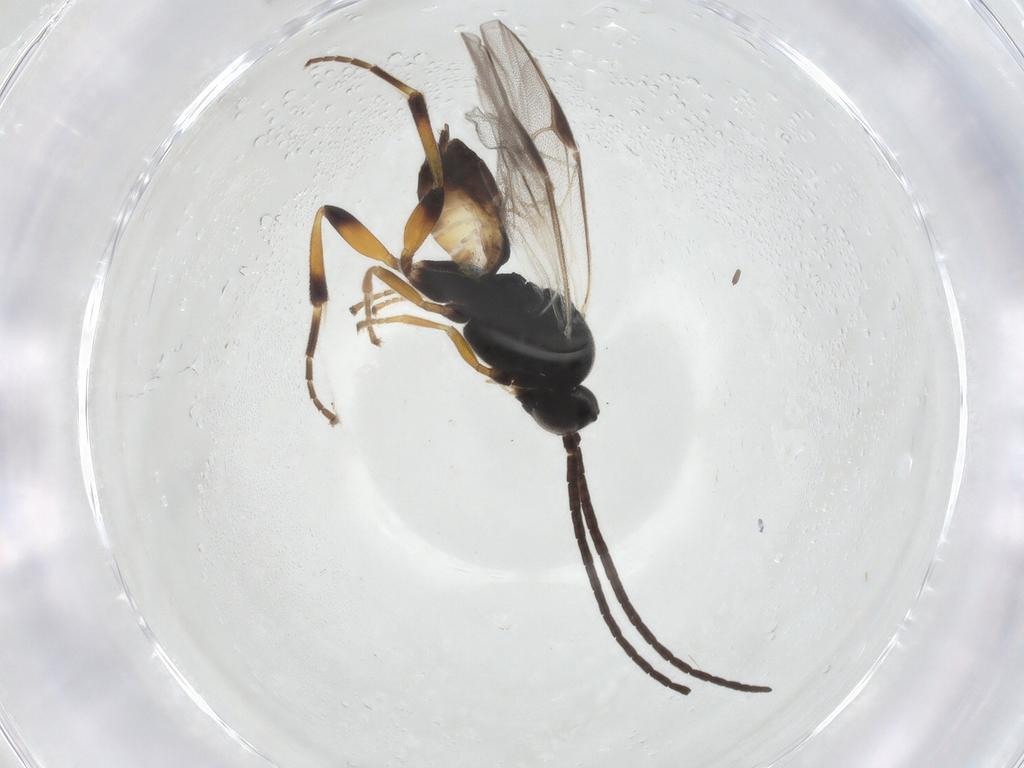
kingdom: Animalia
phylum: Arthropoda
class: Insecta
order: Hymenoptera
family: Braconidae
